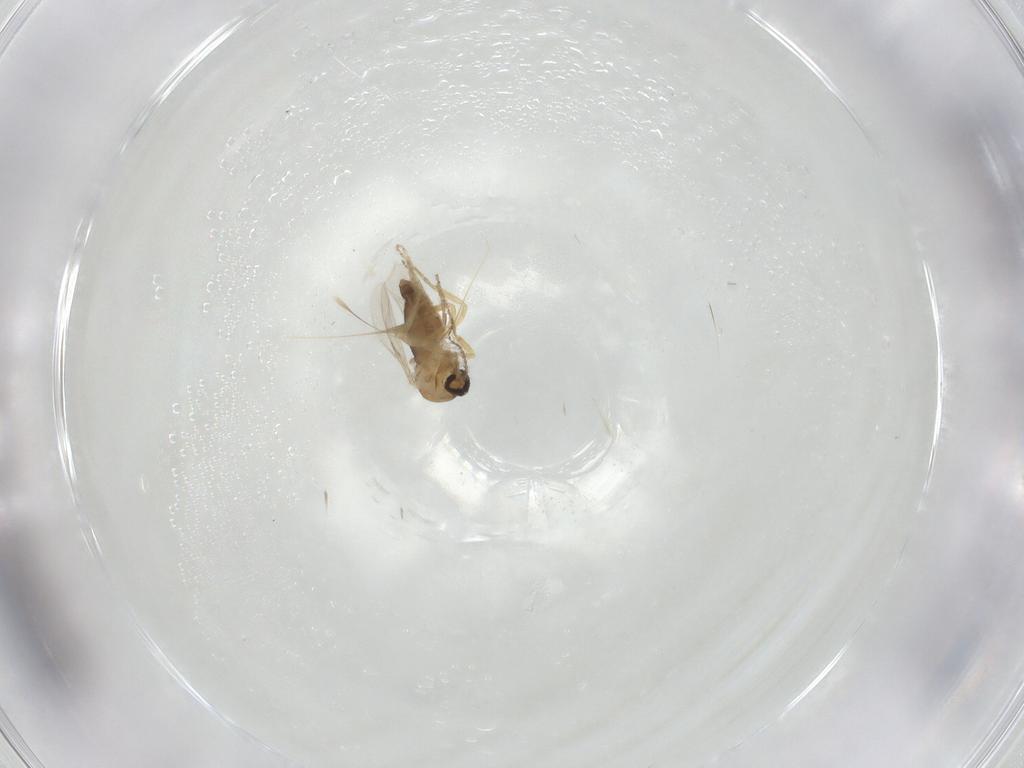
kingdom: Animalia
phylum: Arthropoda
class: Insecta
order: Diptera
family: Ceratopogonidae
